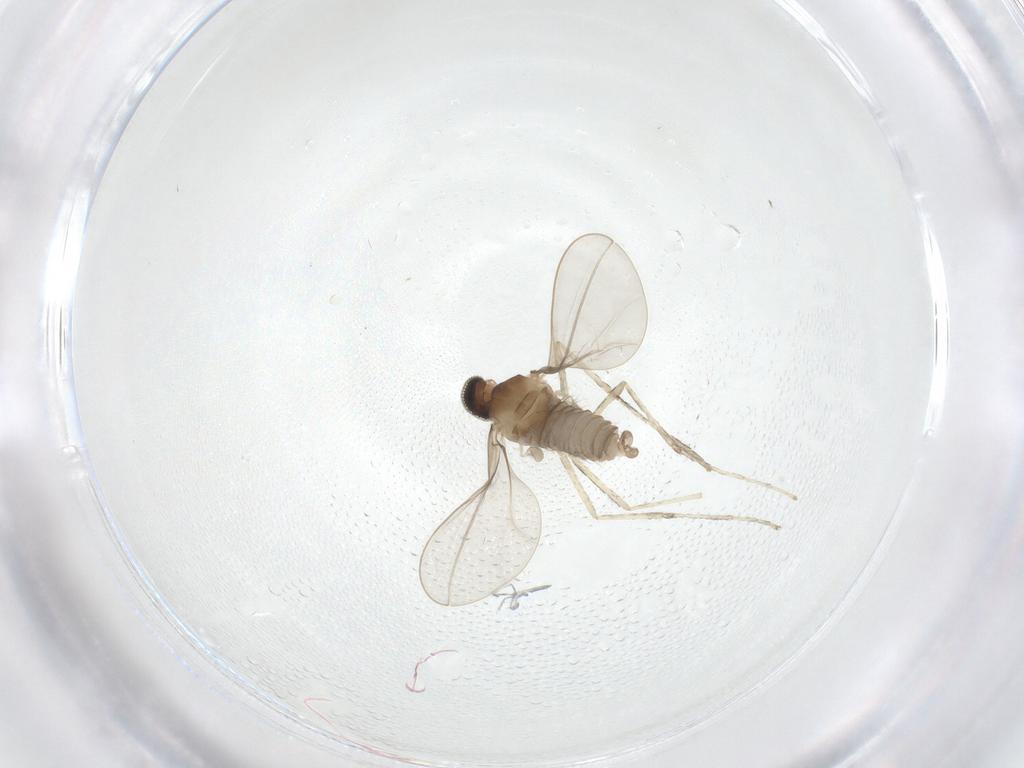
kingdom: Animalia
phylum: Arthropoda
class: Insecta
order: Diptera
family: Cecidomyiidae
